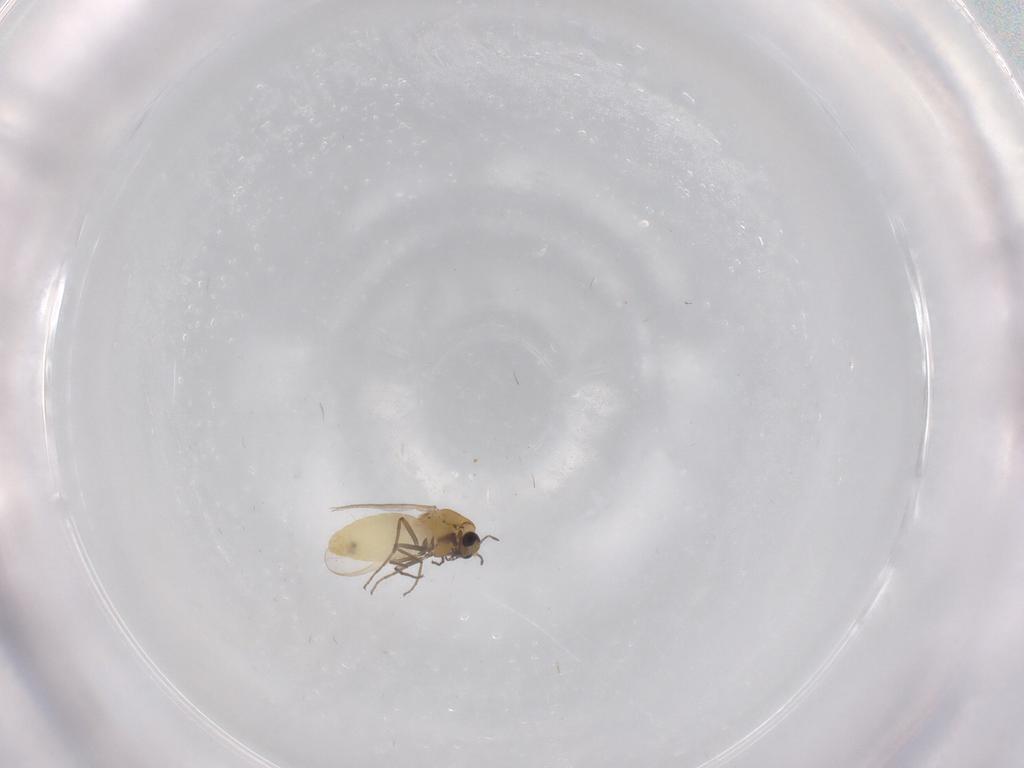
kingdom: Animalia
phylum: Arthropoda
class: Insecta
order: Diptera
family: Chironomidae
